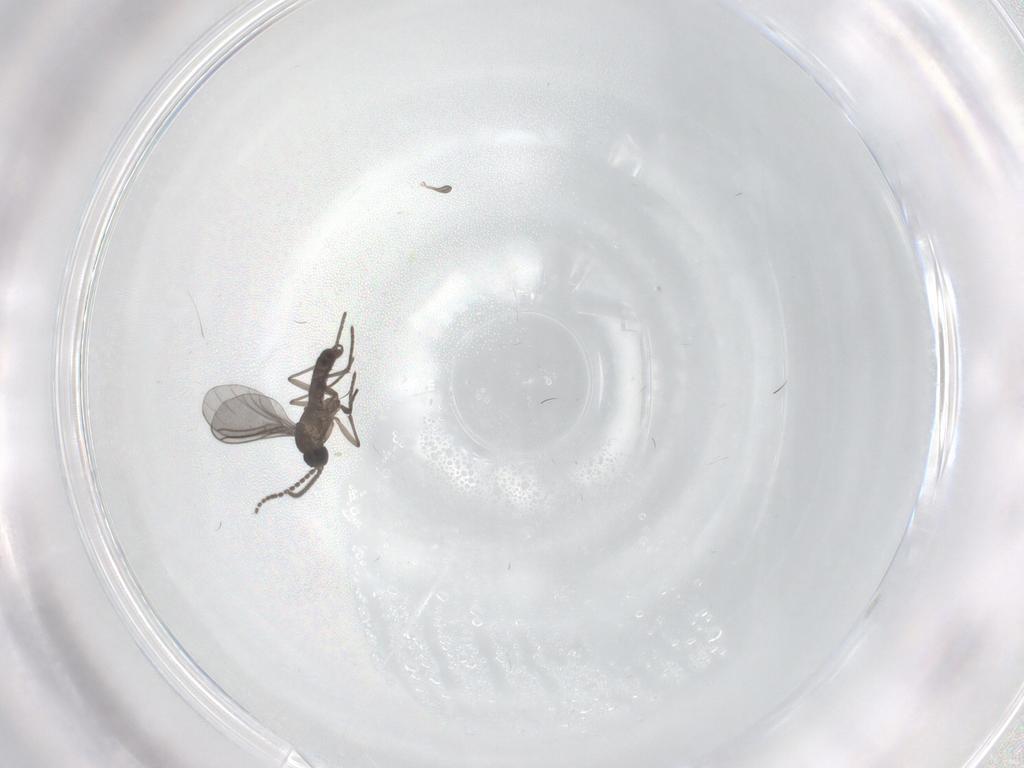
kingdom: Animalia
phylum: Arthropoda
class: Insecta
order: Diptera
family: Cecidomyiidae
